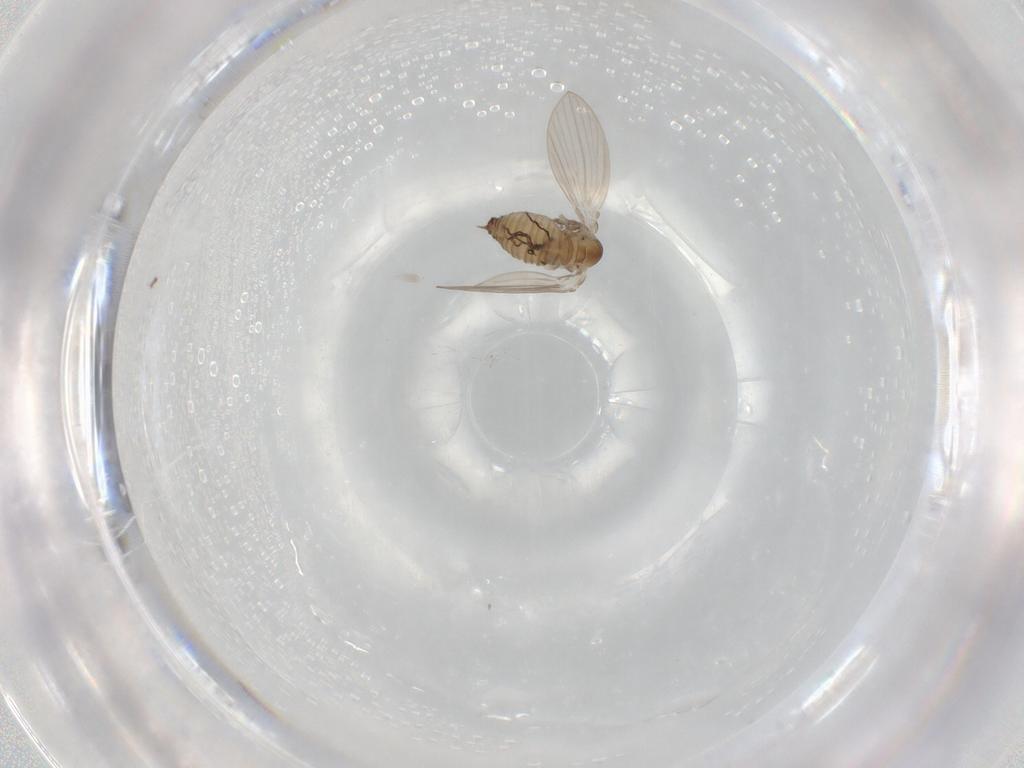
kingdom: Animalia
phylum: Arthropoda
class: Insecta
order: Diptera
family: Psychodidae
